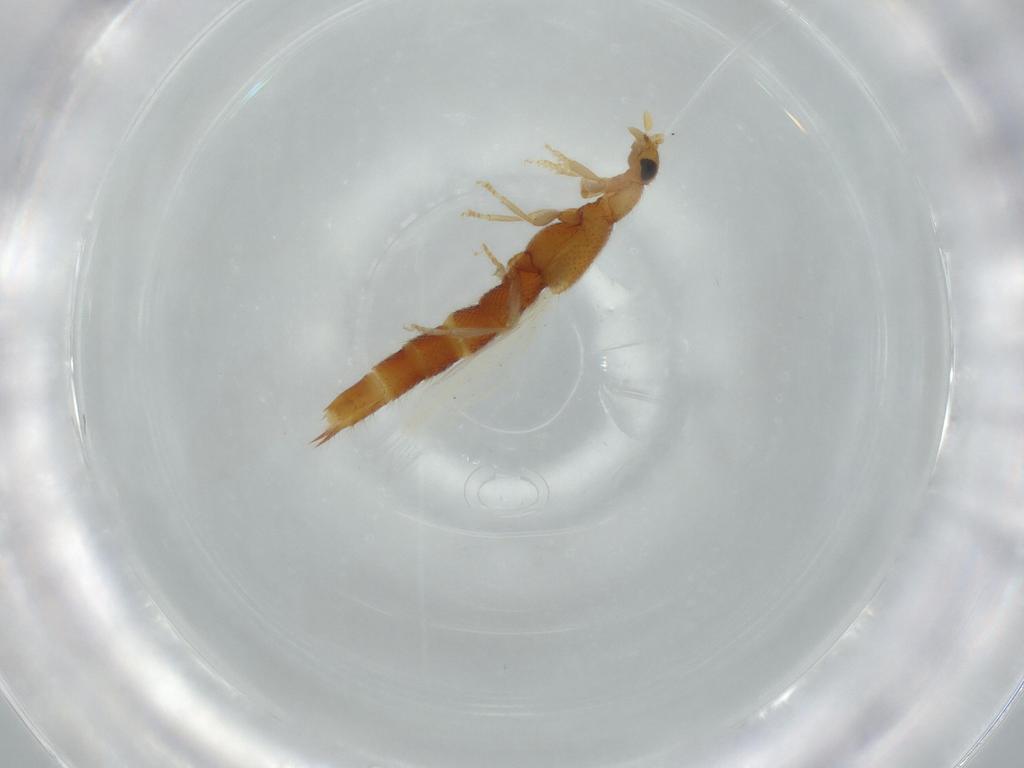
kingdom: Animalia
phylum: Arthropoda
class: Insecta
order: Coleoptera
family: Staphylinidae
